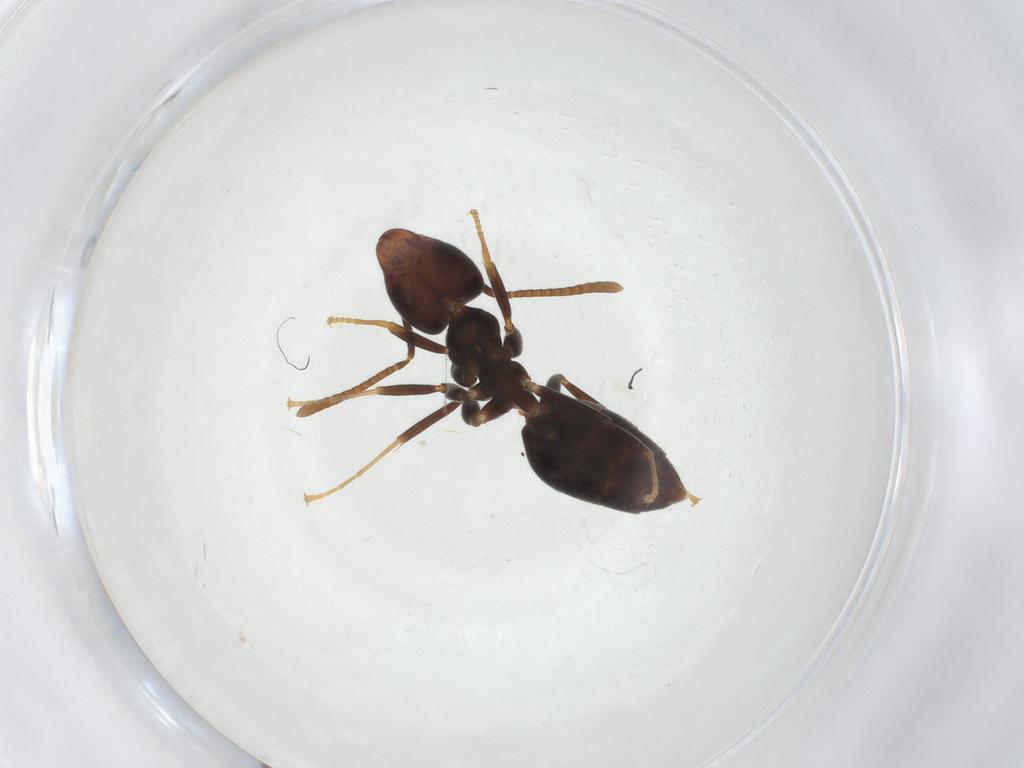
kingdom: Animalia
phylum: Arthropoda
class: Insecta
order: Hymenoptera
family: Formicidae
